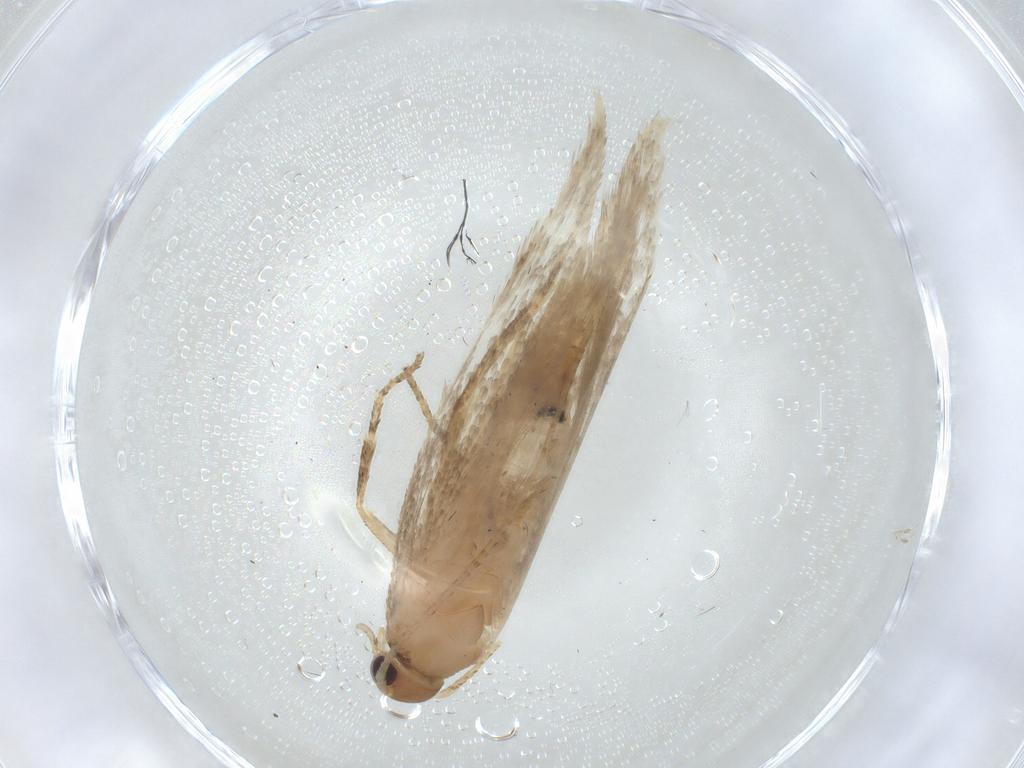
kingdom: Animalia
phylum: Arthropoda
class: Insecta
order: Lepidoptera
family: Gelechiidae
